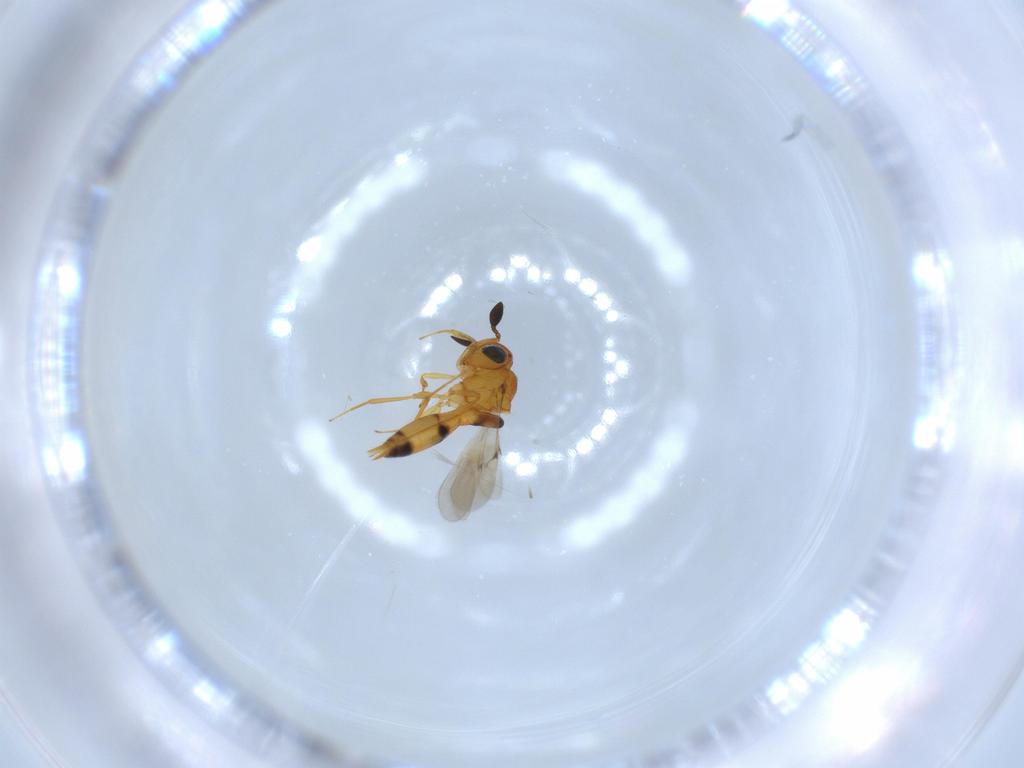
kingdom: Animalia
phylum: Arthropoda
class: Insecta
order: Hymenoptera
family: Scelionidae
